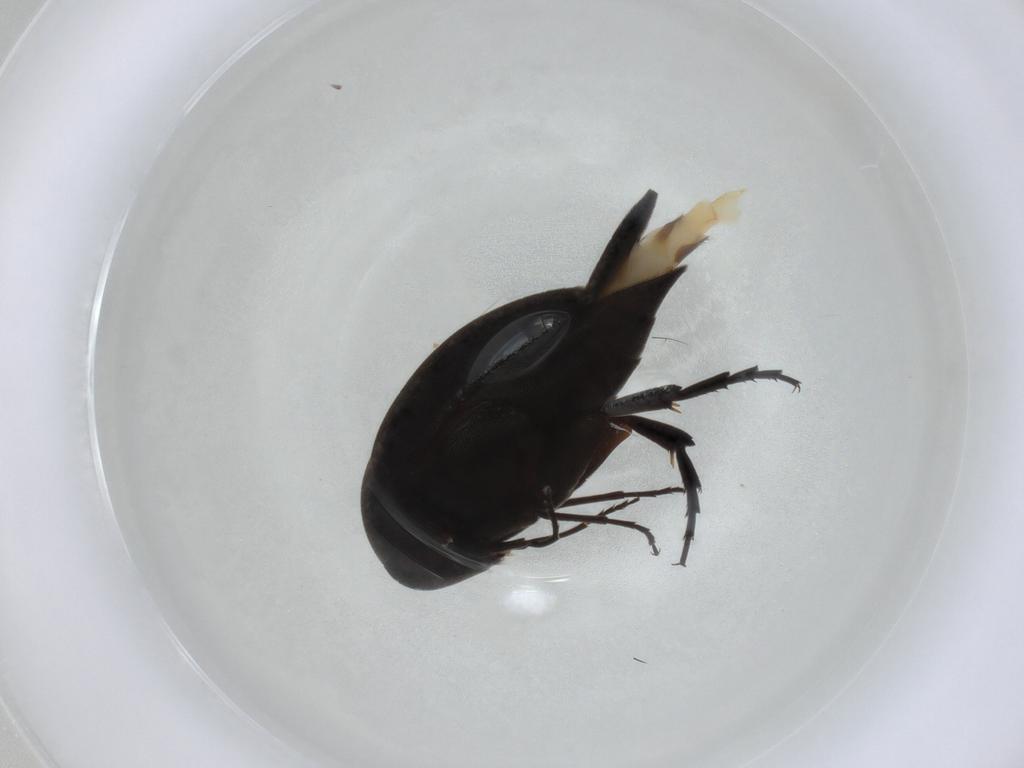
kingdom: Animalia
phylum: Arthropoda
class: Insecta
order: Coleoptera
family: Mordellidae
